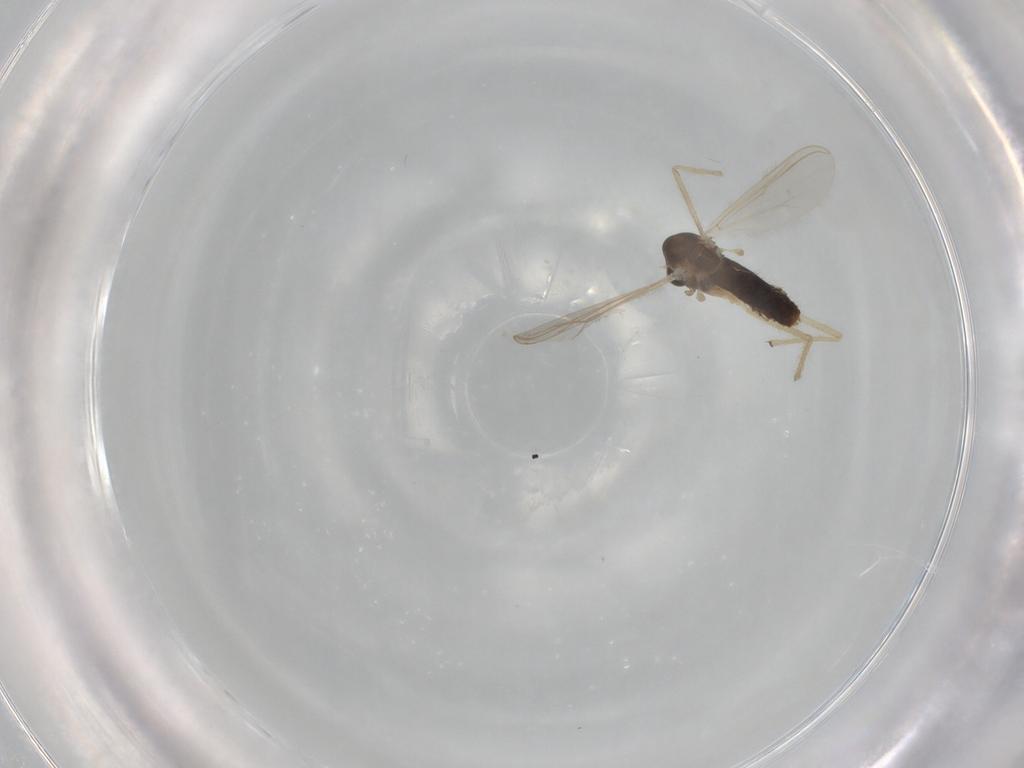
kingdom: Animalia
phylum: Arthropoda
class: Insecta
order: Diptera
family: Chironomidae
